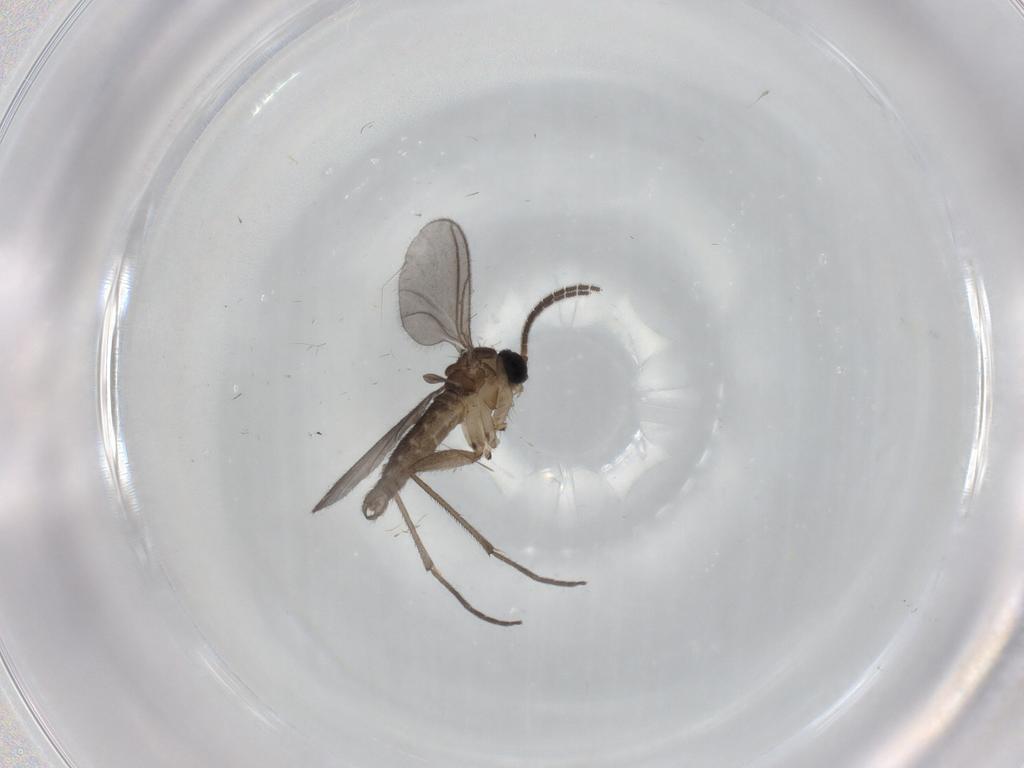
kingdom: Animalia
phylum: Arthropoda
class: Insecta
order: Diptera
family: Sciaridae
